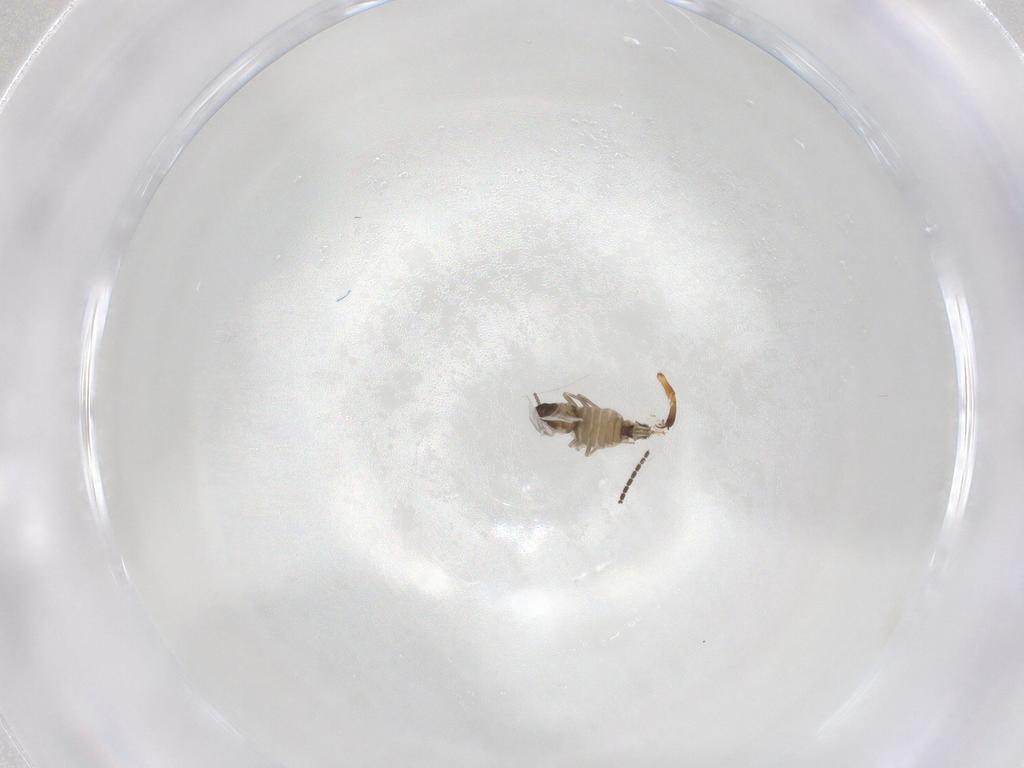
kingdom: Animalia
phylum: Arthropoda
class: Insecta
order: Diptera
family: Cecidomyiidae
